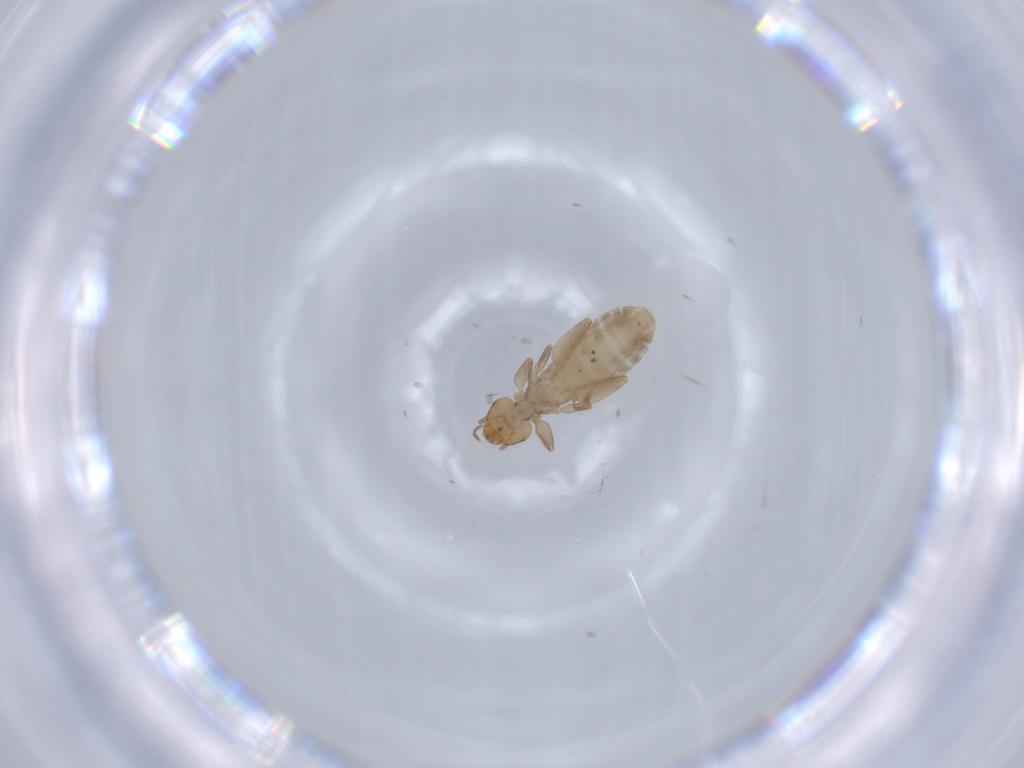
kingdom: Animalia
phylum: Arthropoda
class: Insecta
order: Psocodea
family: Liposcelididae
